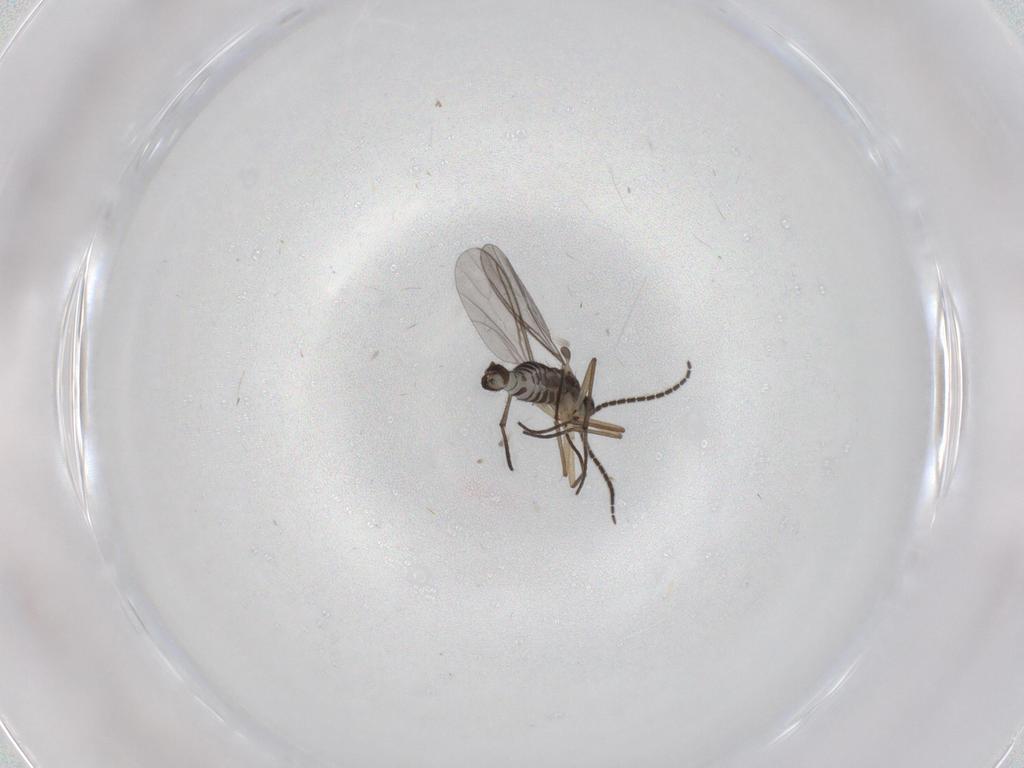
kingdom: Animalia
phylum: Arthropoda
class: Insecta
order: Diptera
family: Sciaridae
